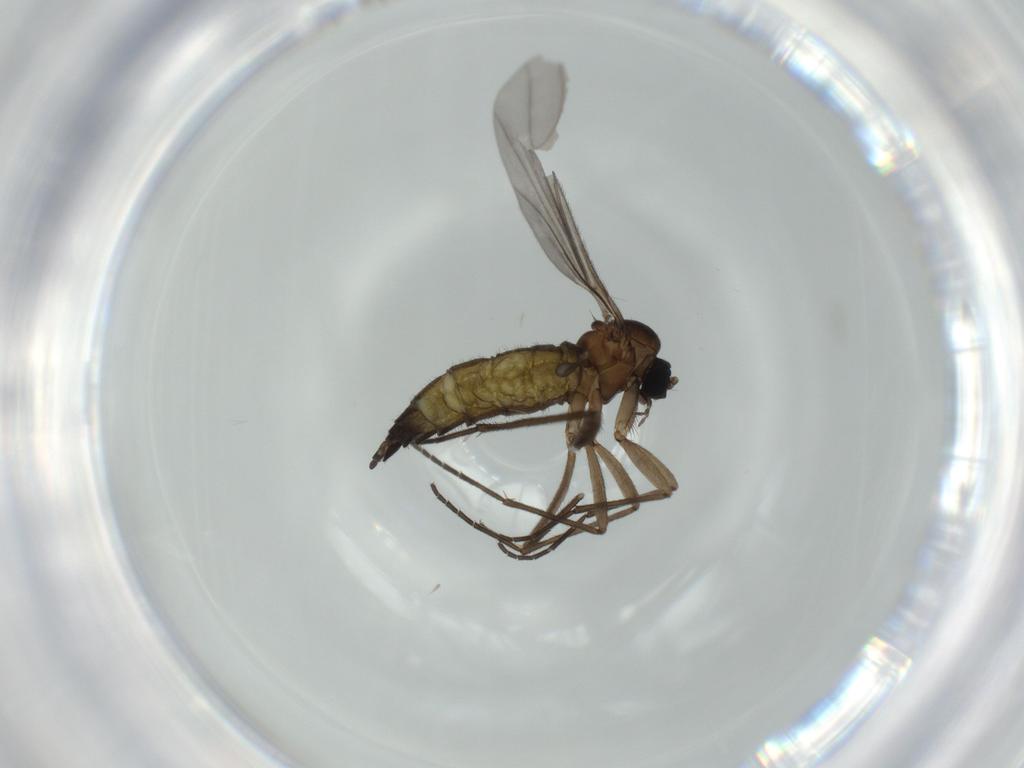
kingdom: Animalia
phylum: Arthropoda
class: Insecta
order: Diptera
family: Sciaridae
